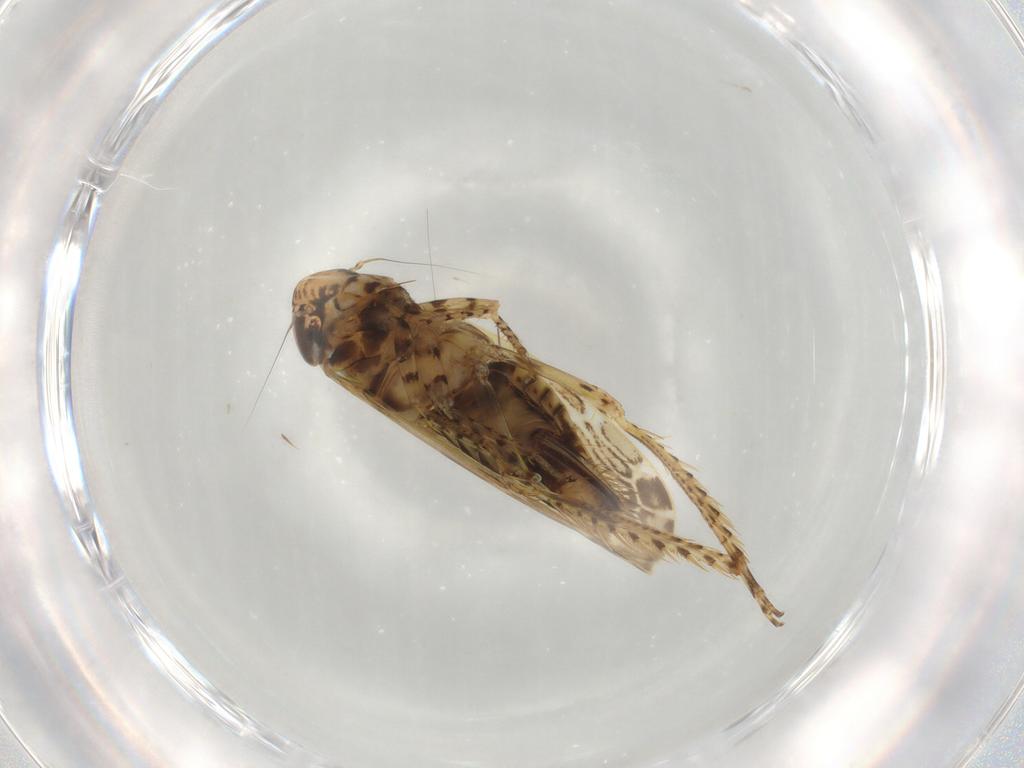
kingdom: Animalia
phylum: Arthropoda
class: Insecta
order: Hemiptera
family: Cicadellidae
